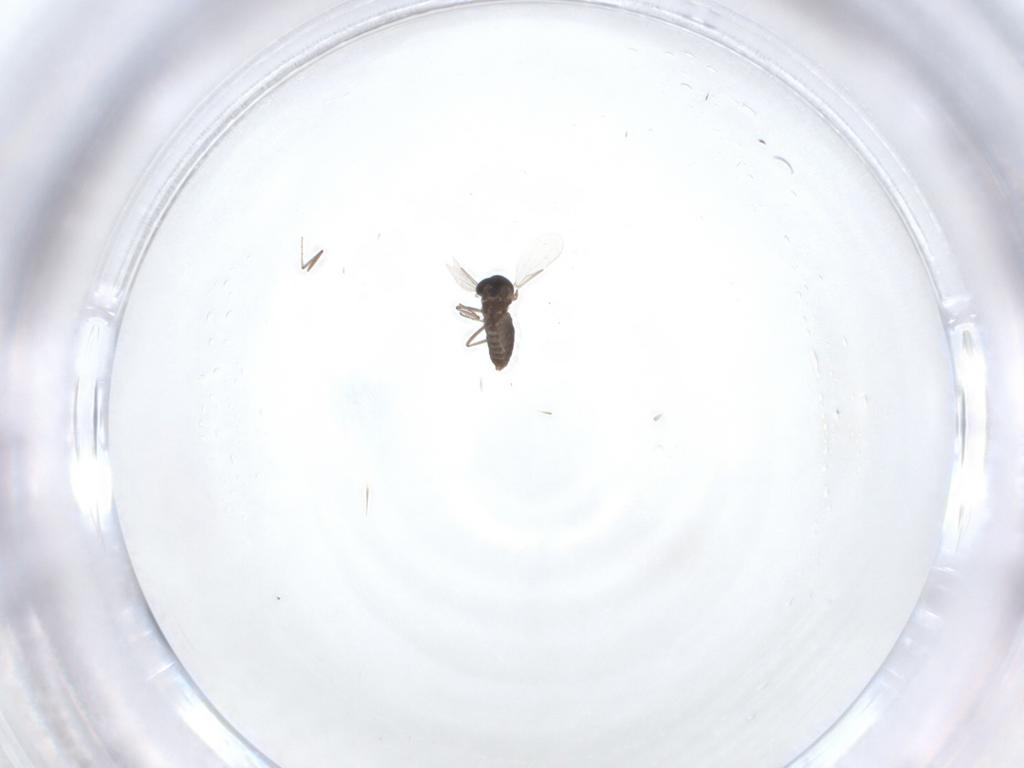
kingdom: Animalia
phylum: Arthropoda
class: Insecta
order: Diptera
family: Ceratopogonidae
